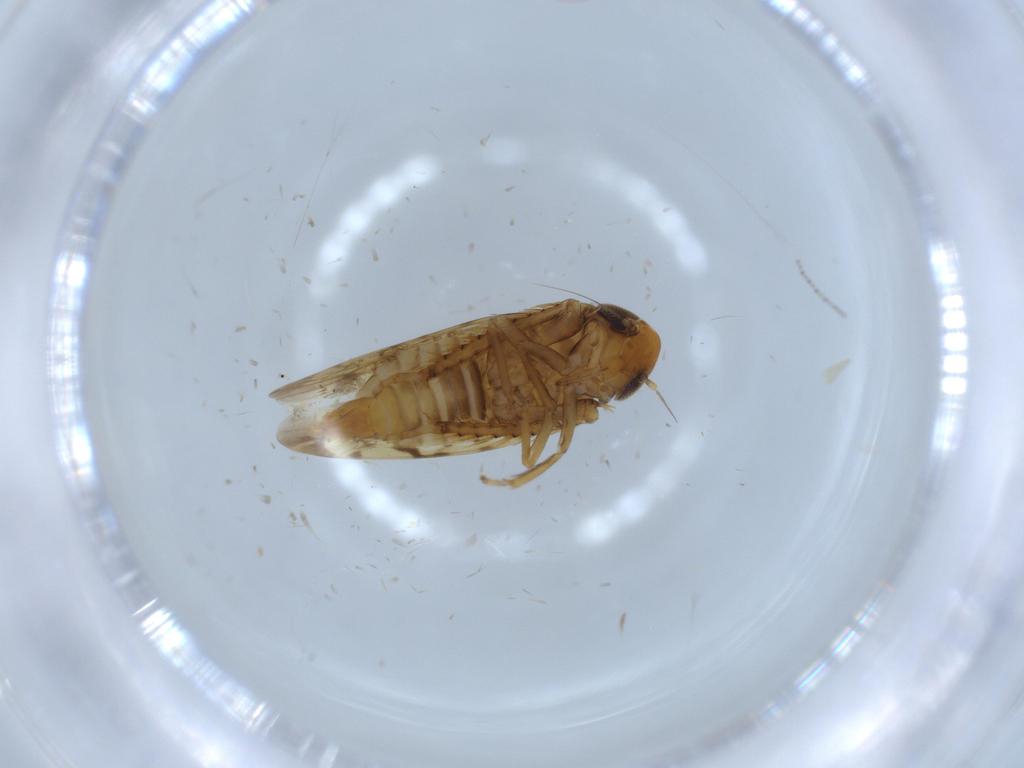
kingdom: Animalia
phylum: Arthropoda
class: Insecta
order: Hemiptera
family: Cicadellidae
